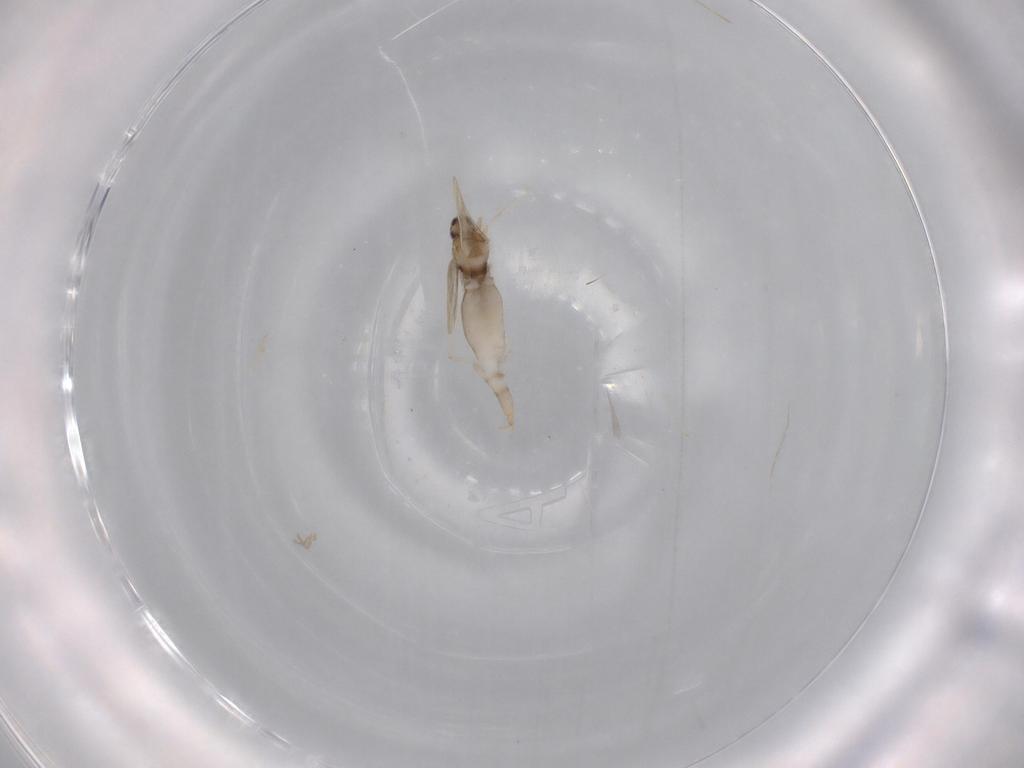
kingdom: Animalia
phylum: Arthropoda
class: Insecta
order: Diptera
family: Cecidomyiidae
